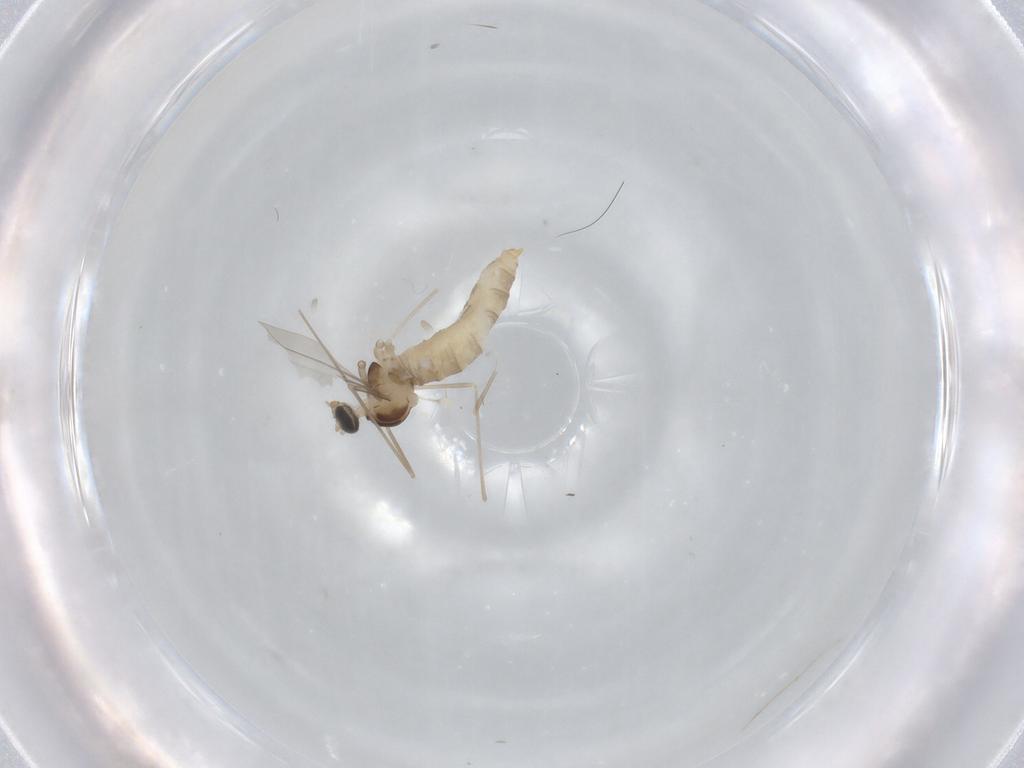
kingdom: Animalia
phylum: Arthropoda
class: Insecta
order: Diptera
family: Cecidomyiidae
